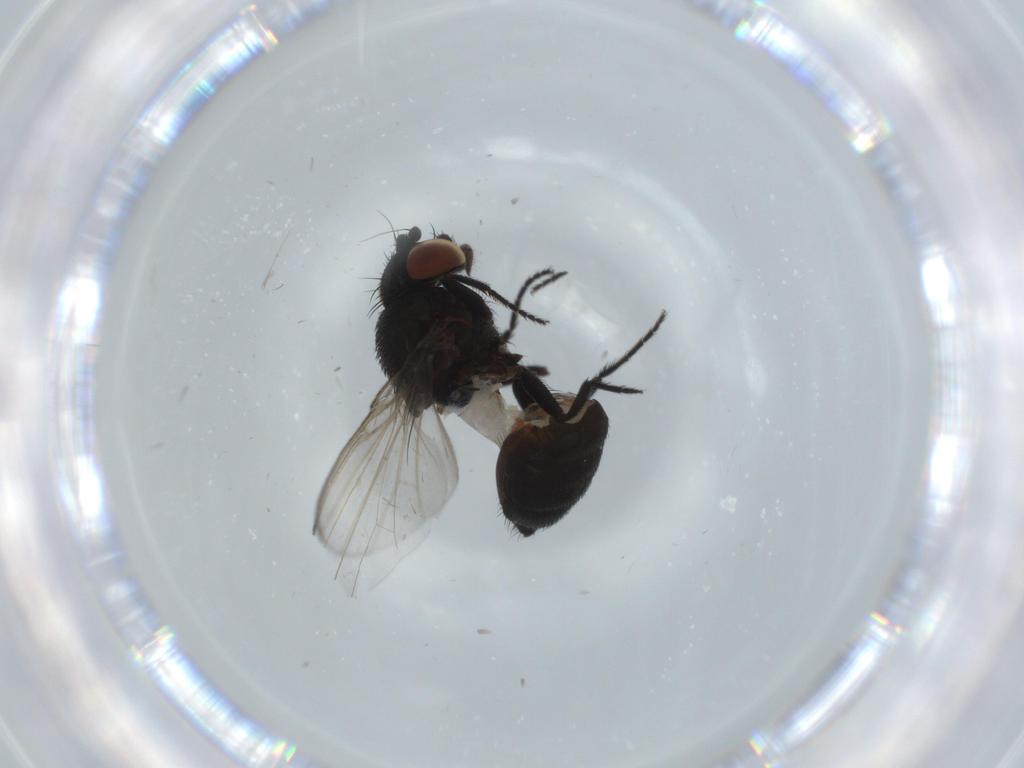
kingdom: Animalia
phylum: Arthropoda
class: Insecta
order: Diptera
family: Milichiidae
